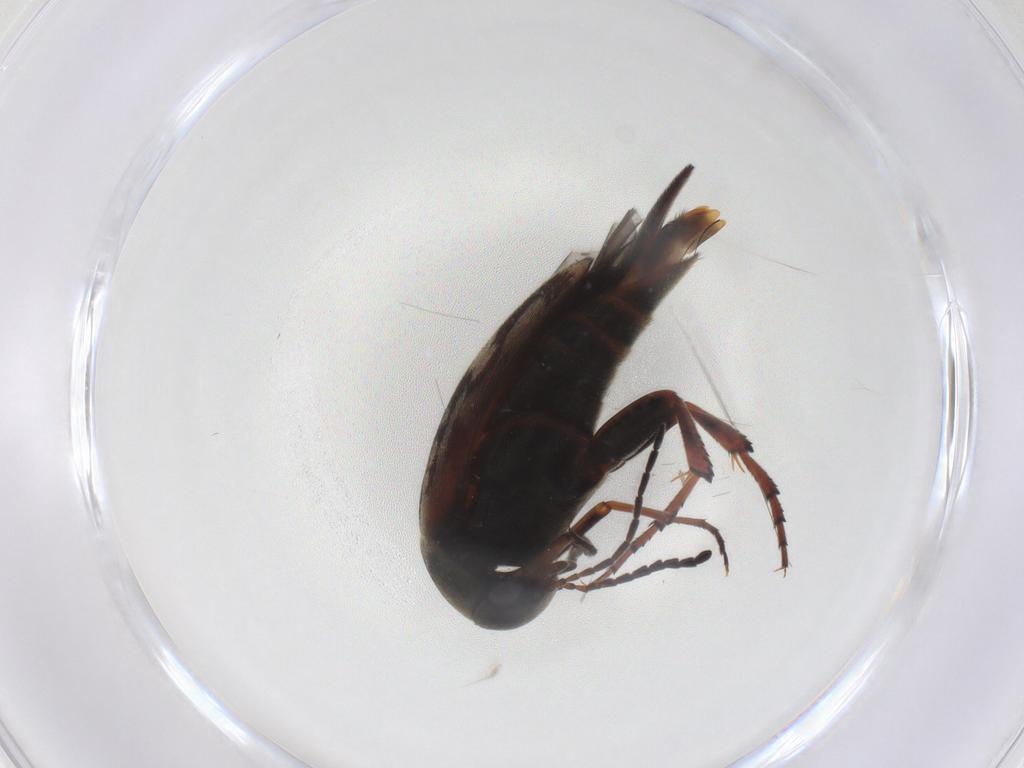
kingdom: Animalia
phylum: Arthropoda
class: Insecta
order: Coleoptera
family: Mordellidae
